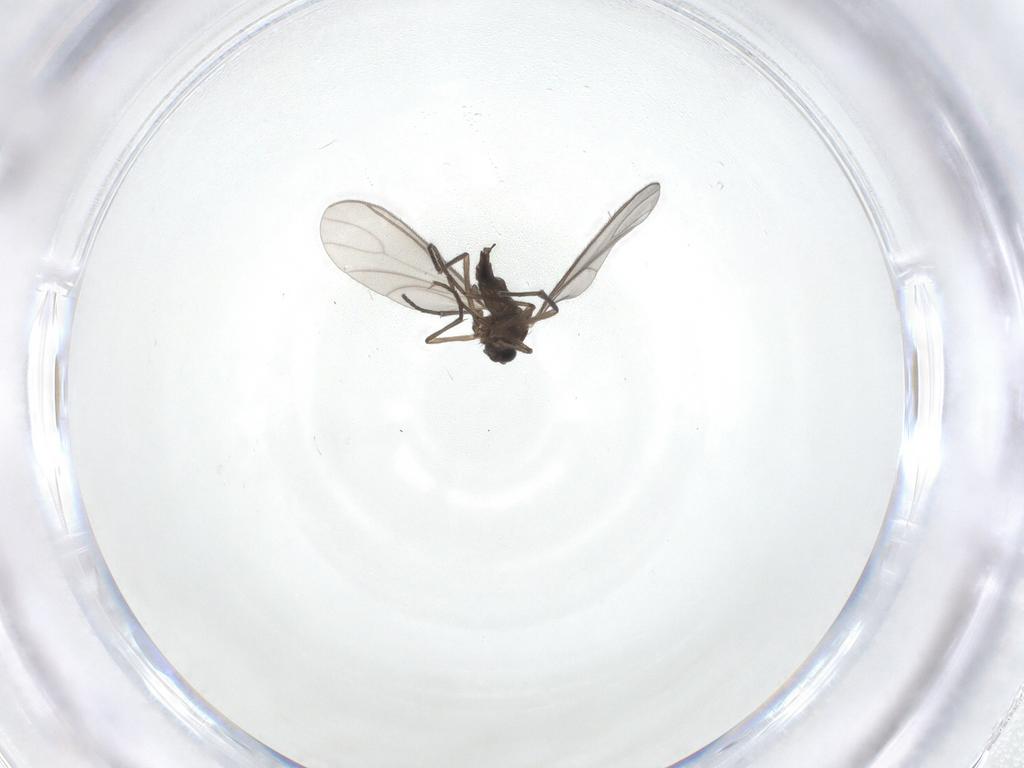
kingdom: Animalia
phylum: Arthropoda
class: Insecta
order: Diptera
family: Sciaridae
